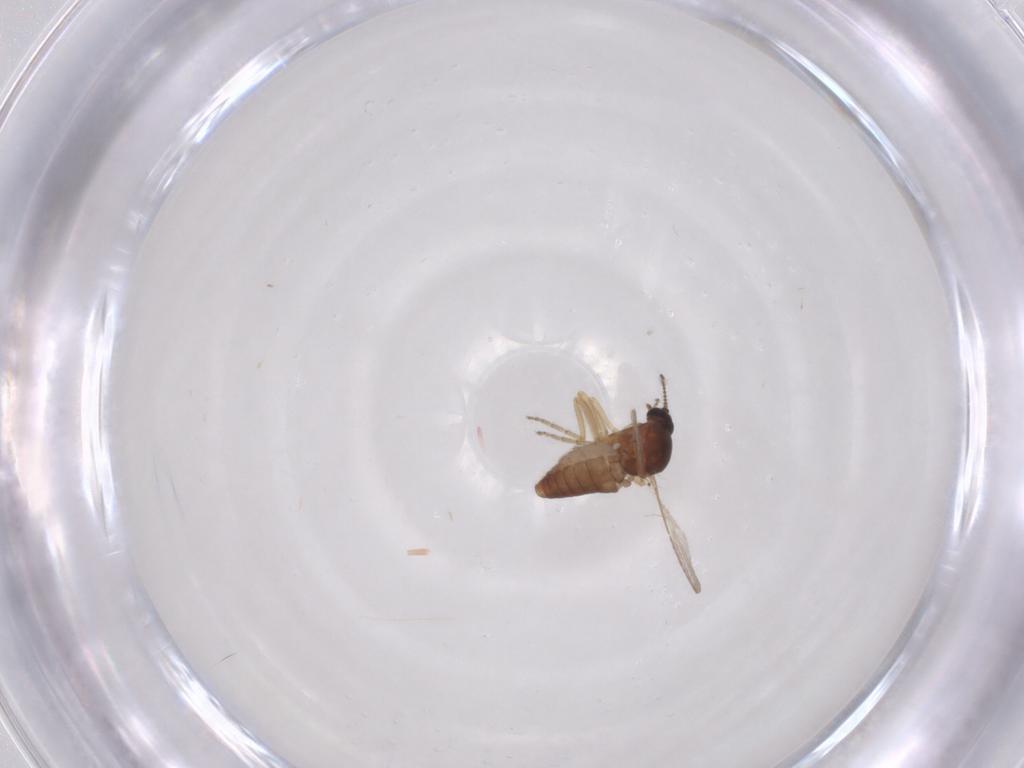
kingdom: Animalia
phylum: Arthropoda
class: Insecta
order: Diptera
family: Ceratopogonidae
